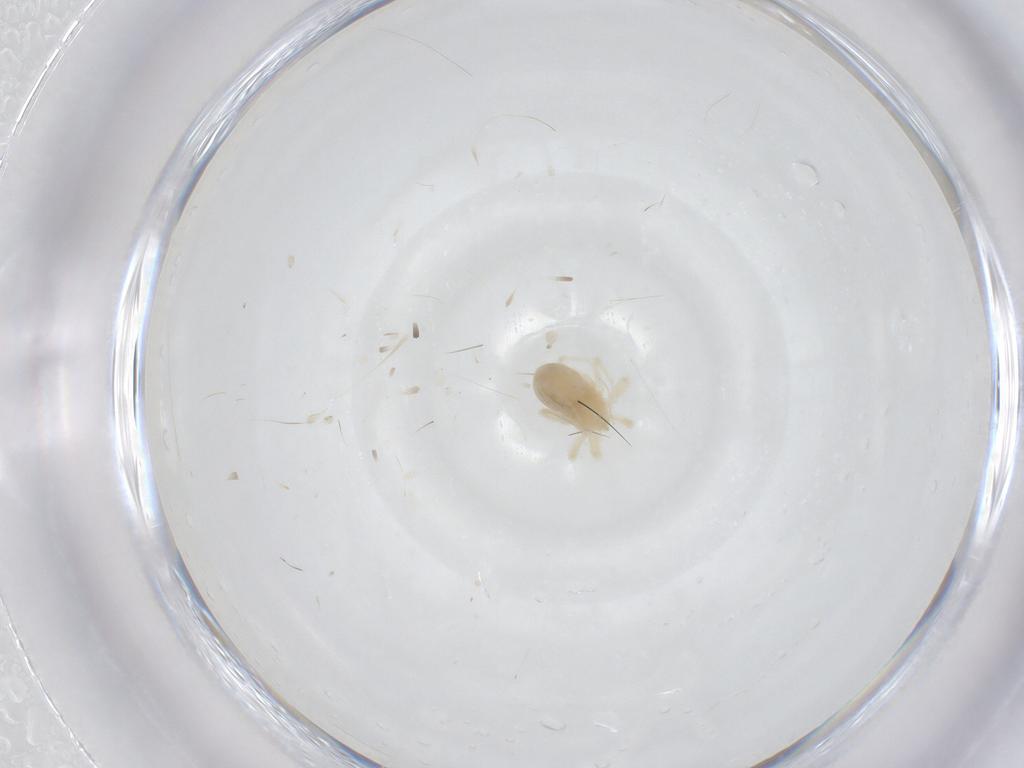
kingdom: Animalia
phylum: Arthropoda
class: Arachnida
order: Trombidiformes
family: Anystidae
